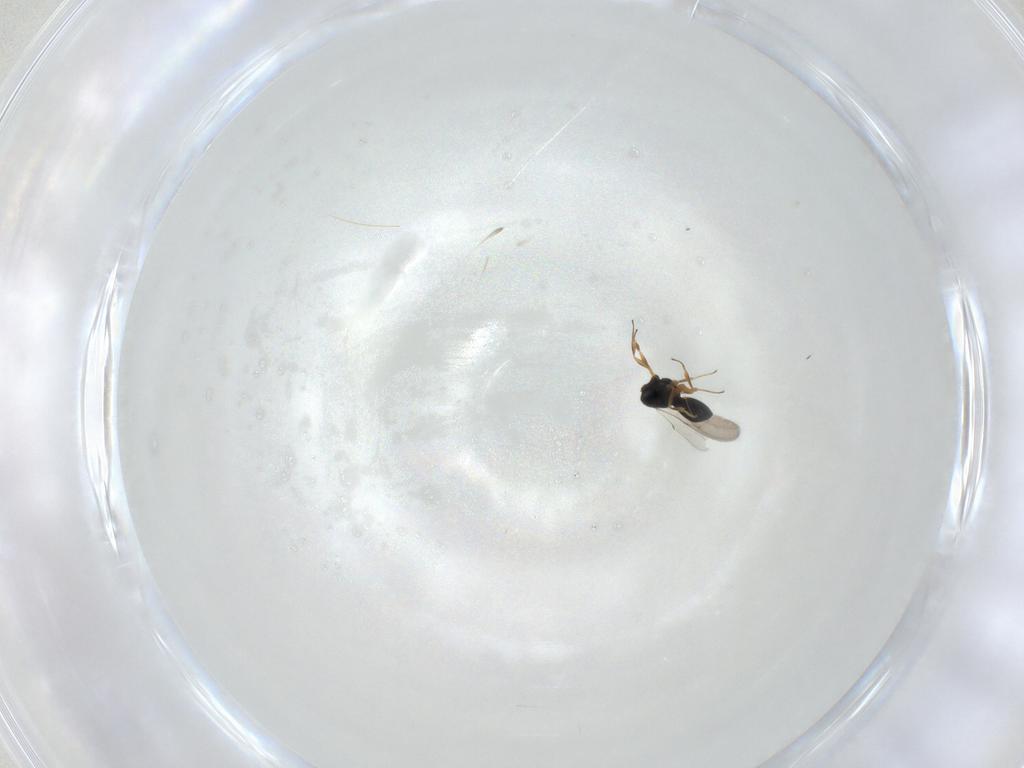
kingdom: Animalia
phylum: Arthropoda
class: Insecta
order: Hymenoptera
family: Scelionidae
